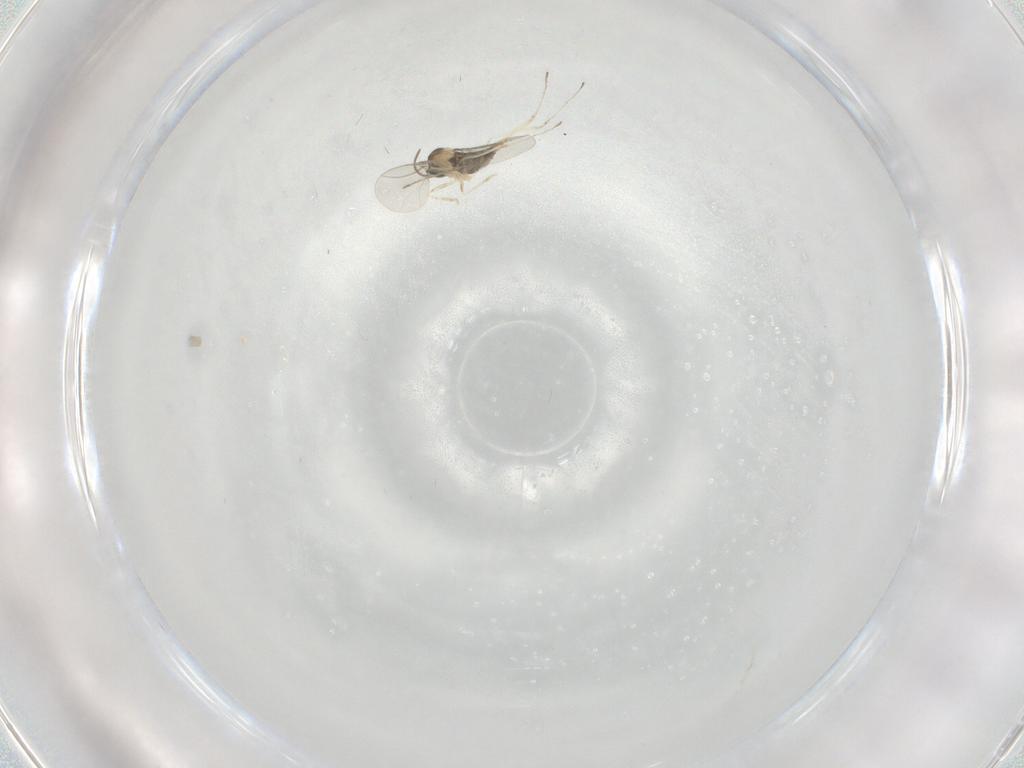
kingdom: Animalia
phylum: Arthropoda
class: Insecta
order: Diptera
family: Cecidomyiidae
